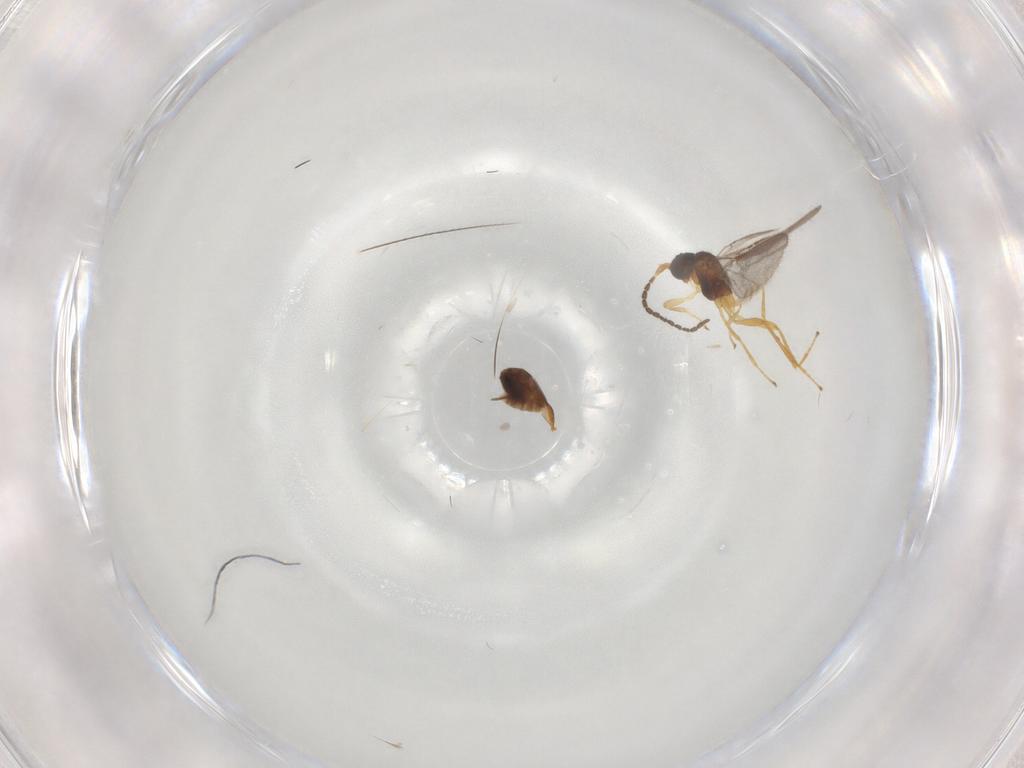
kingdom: Animalia
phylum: Arthropoda
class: Insecta
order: Hymenoptera
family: Braconidae
